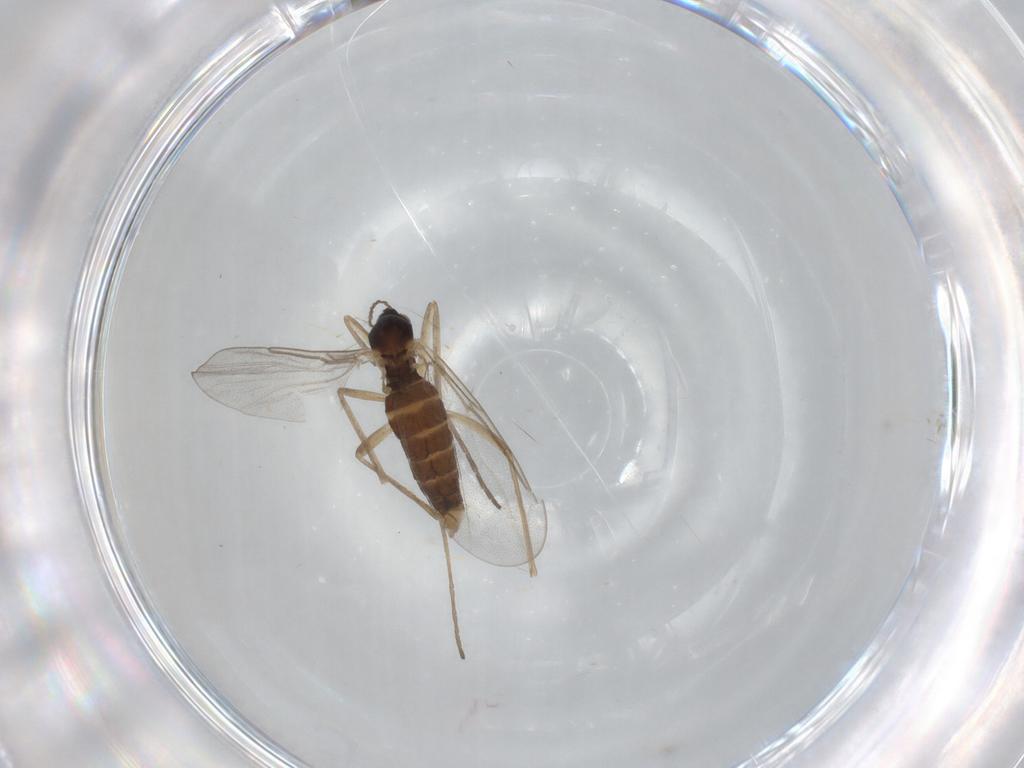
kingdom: Animalia
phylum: Arthropoda
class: Insecta
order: Diptera
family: Cecidomyiidae
